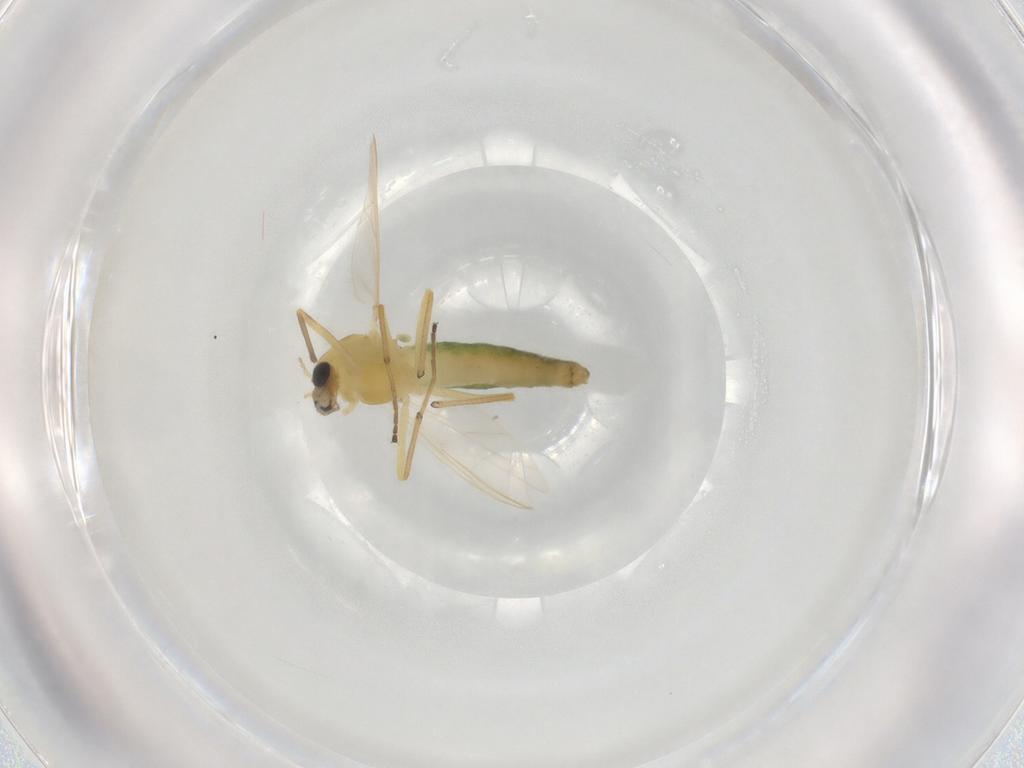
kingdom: Animalia
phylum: Arthropoda
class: Insecta
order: Diptera
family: Chironomidae
